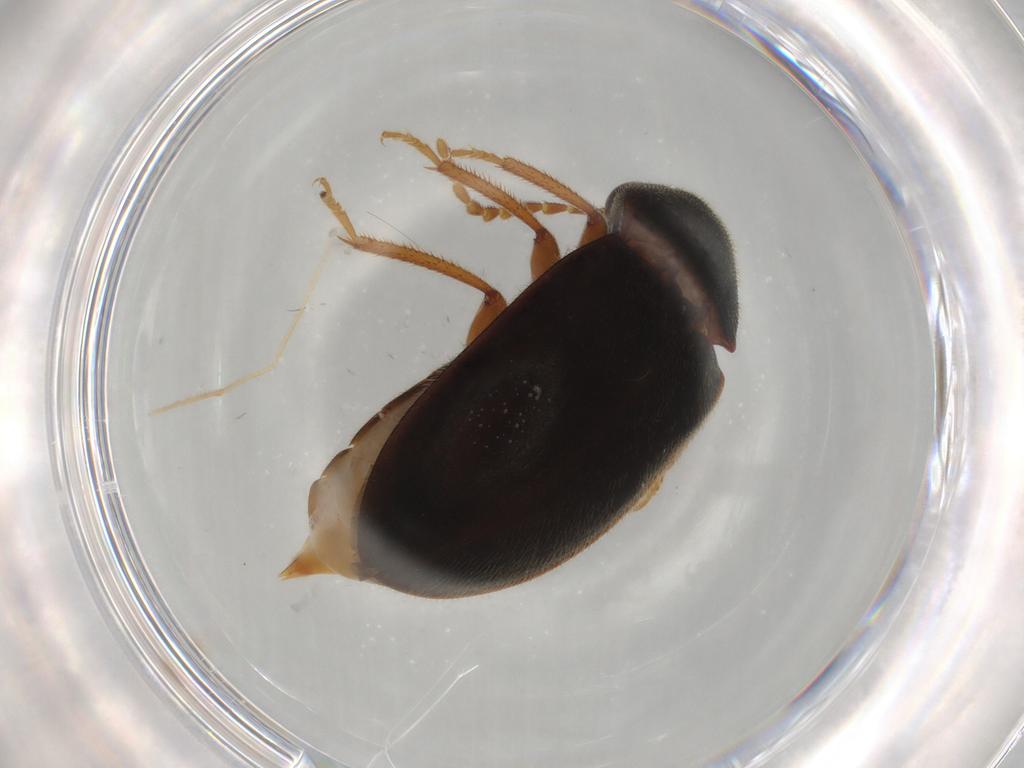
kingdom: Animalia
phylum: Arthropoda
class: Insecta
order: Coleoptera
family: Ptilodactylidae
